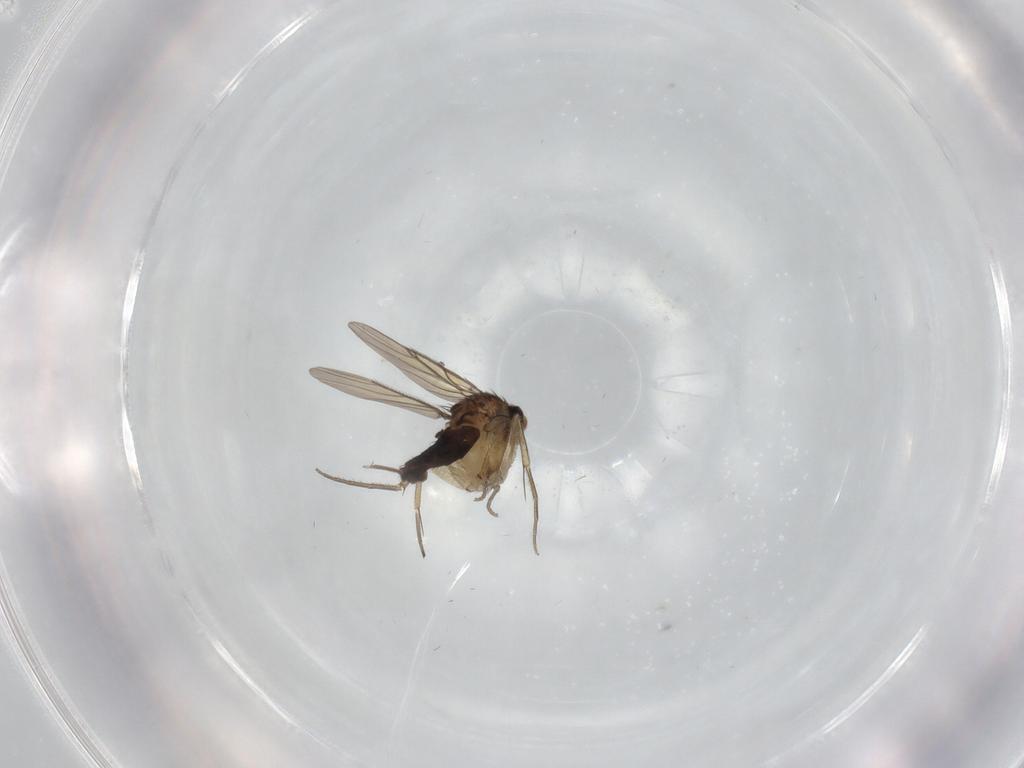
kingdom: Animalia
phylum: Arthropoda
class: Insecta
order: Diptera
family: Phoridae
